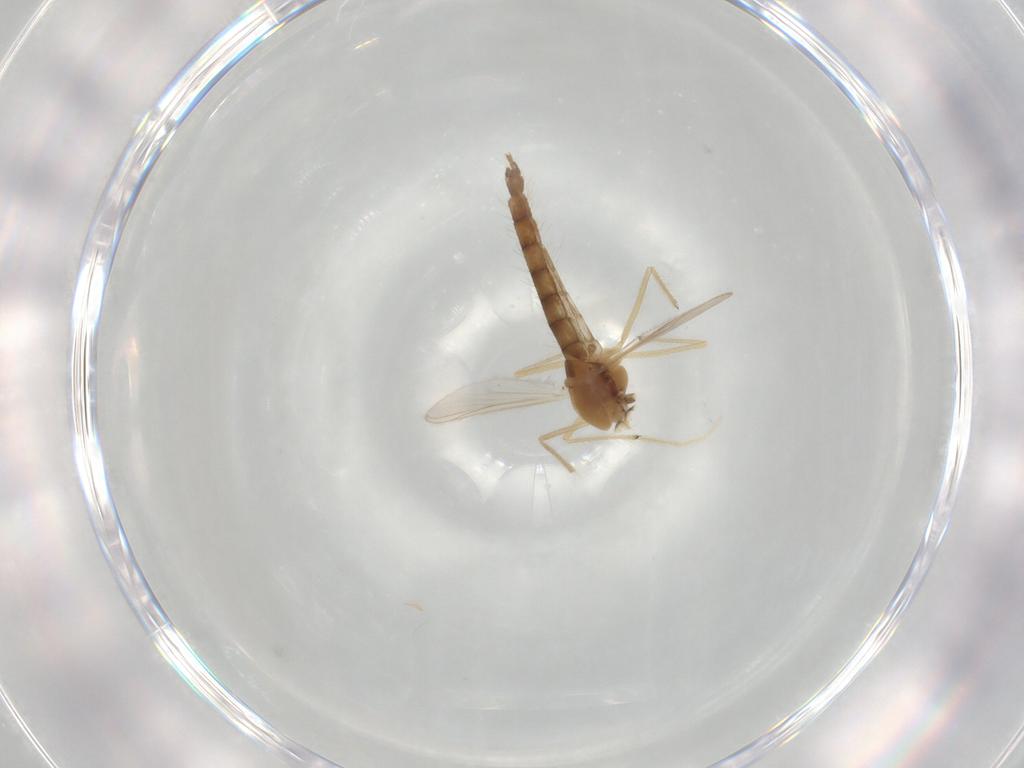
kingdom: Animalia
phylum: Arthropoda
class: Insecta
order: Diptera
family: Chironomidae
